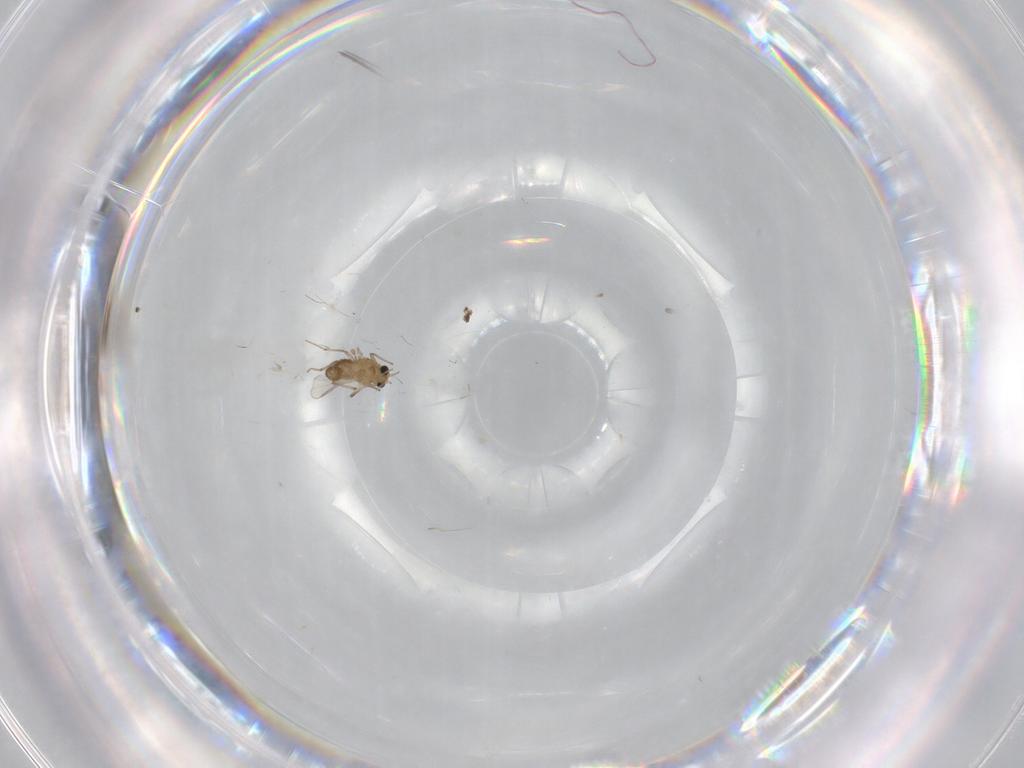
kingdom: Animalia
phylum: Arthropoda
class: Insecta
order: Diptera
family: Chironomidae
